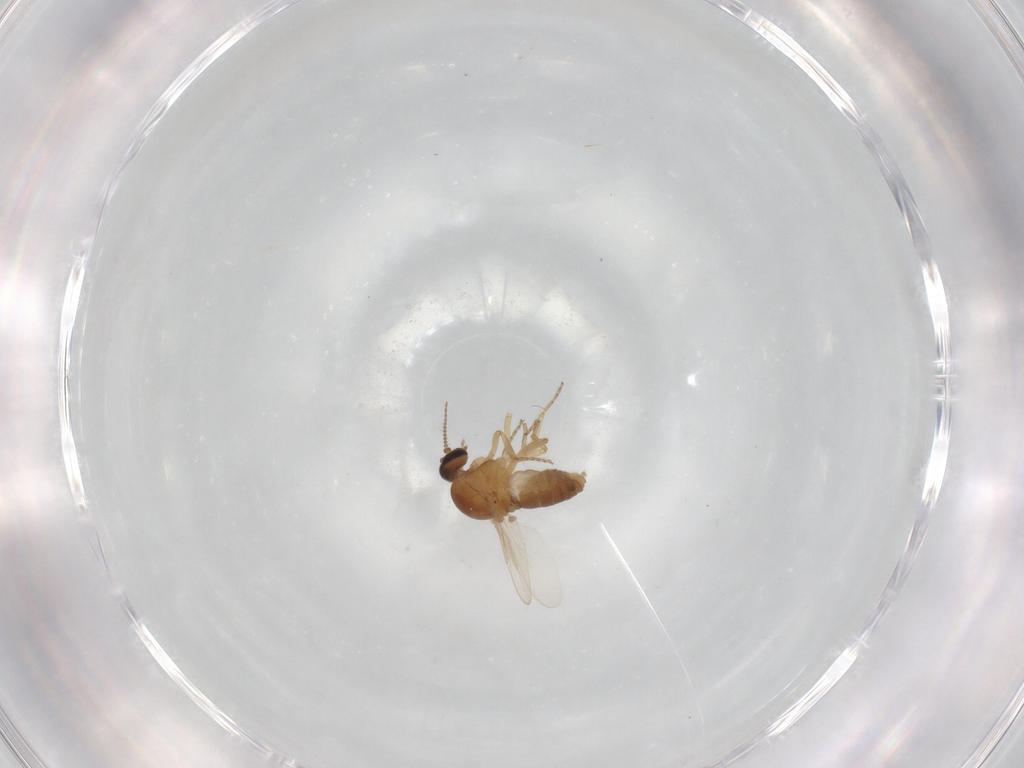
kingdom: Animalia
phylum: Arthropoda
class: Insecta
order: Diptera
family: Ceratopogonidae
